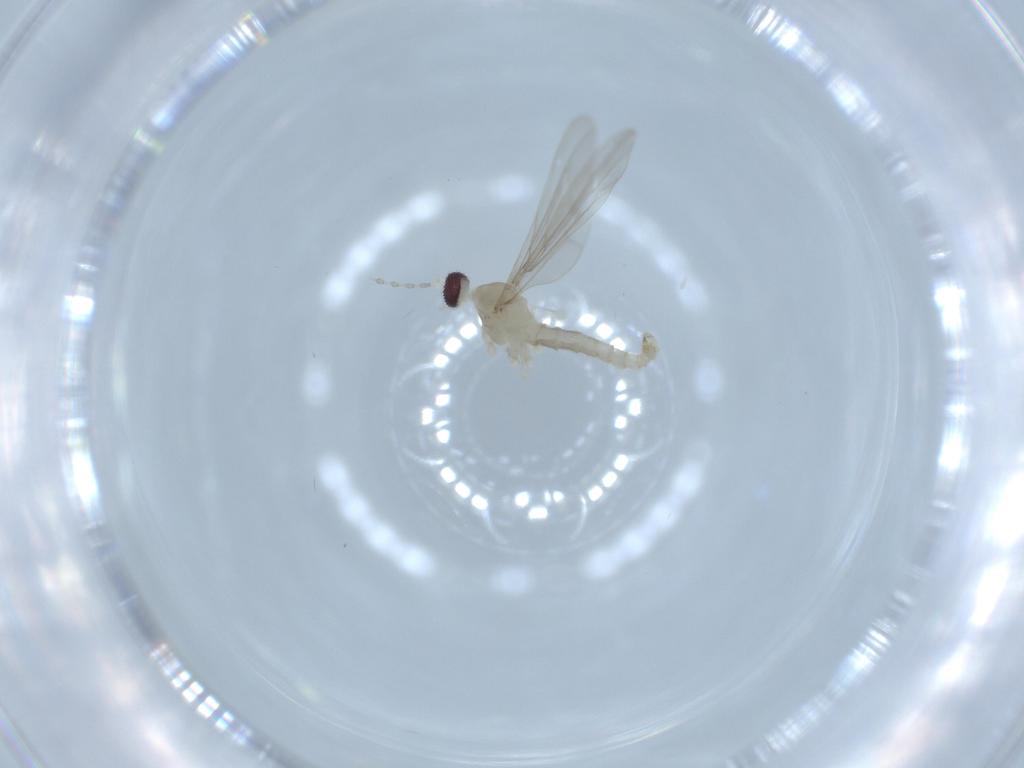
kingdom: Animalia
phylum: Arthropoda
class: Insecta
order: Diptera
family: Cecidomyiidae
